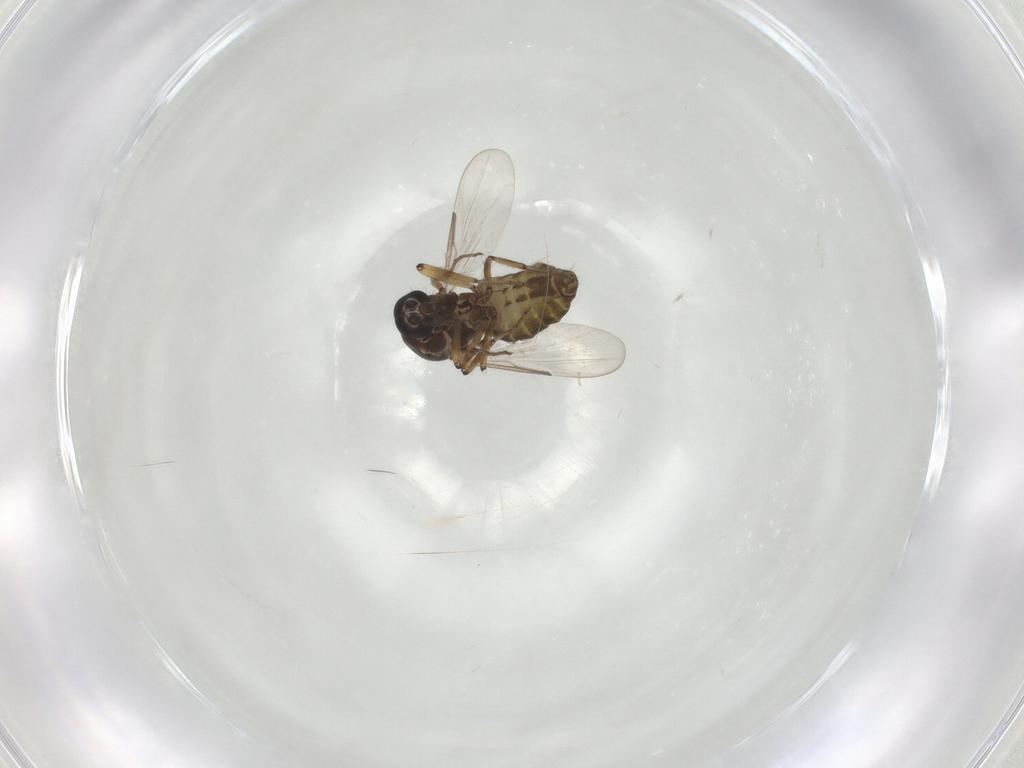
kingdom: Animalia
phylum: Arthropoda
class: Insecta
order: Diptera
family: Ceratopogonidae
